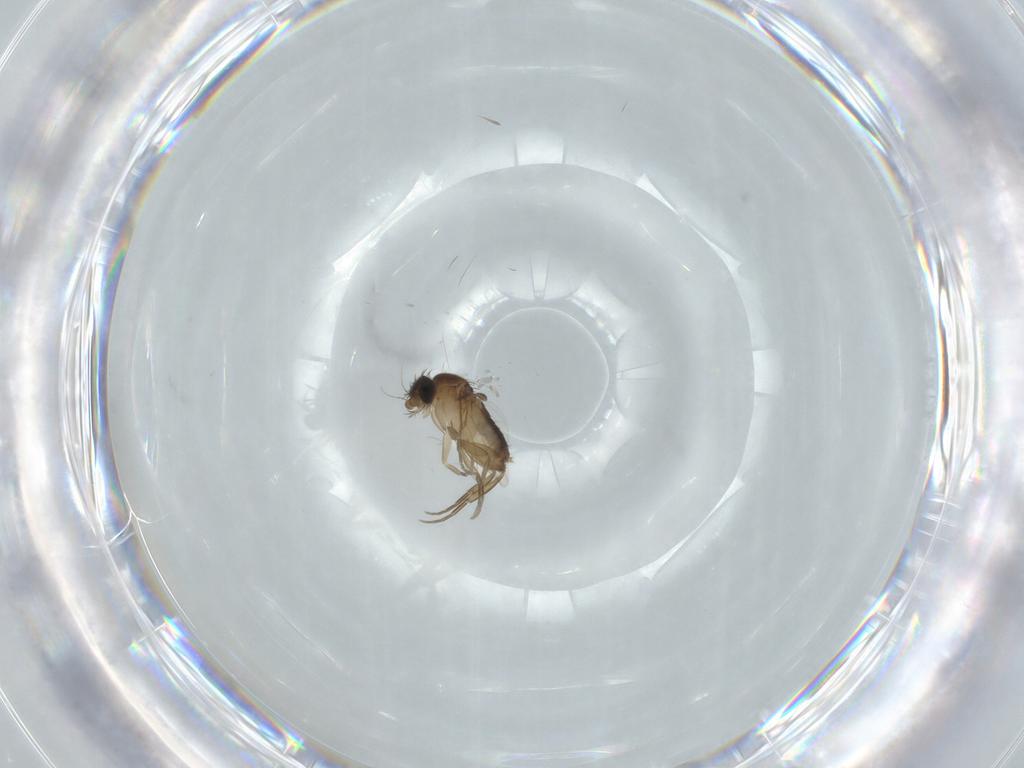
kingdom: Animalia
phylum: Arthropoda
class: Insecta
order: Diptera
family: Phoridae
